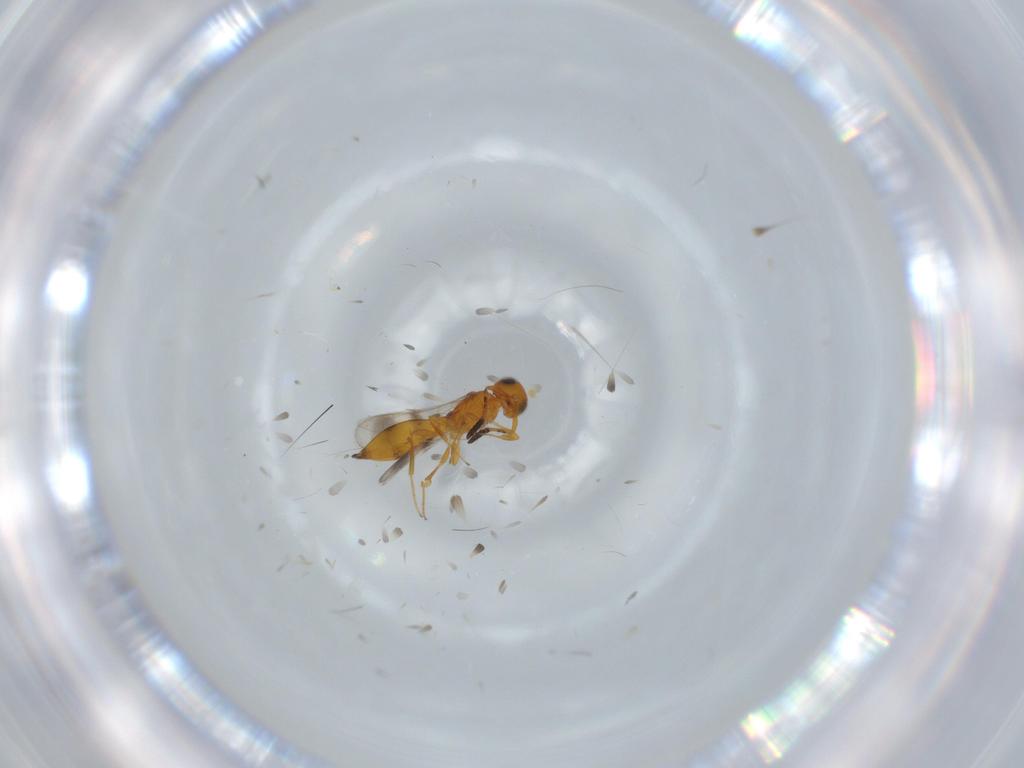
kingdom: Animalia
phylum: Arthropoda
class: Insecta
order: Hymenoptera
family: Scelionidae
